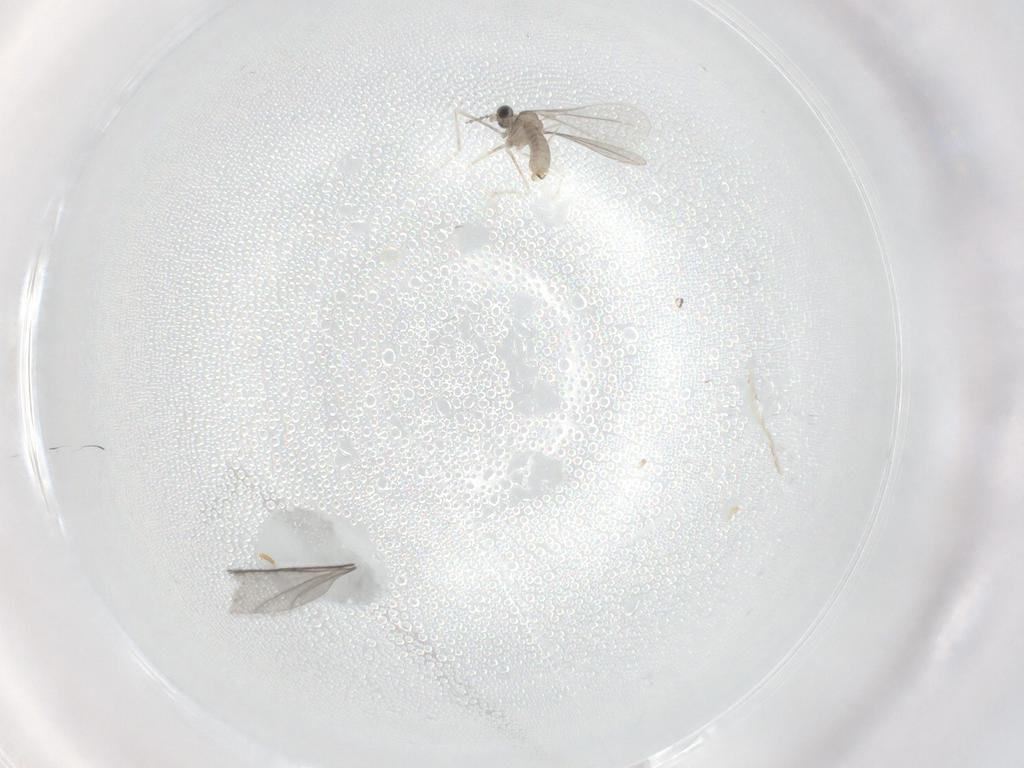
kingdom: Animalia
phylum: Arthropoda
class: Insecta
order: Diptera
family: Cecidomyiidae
